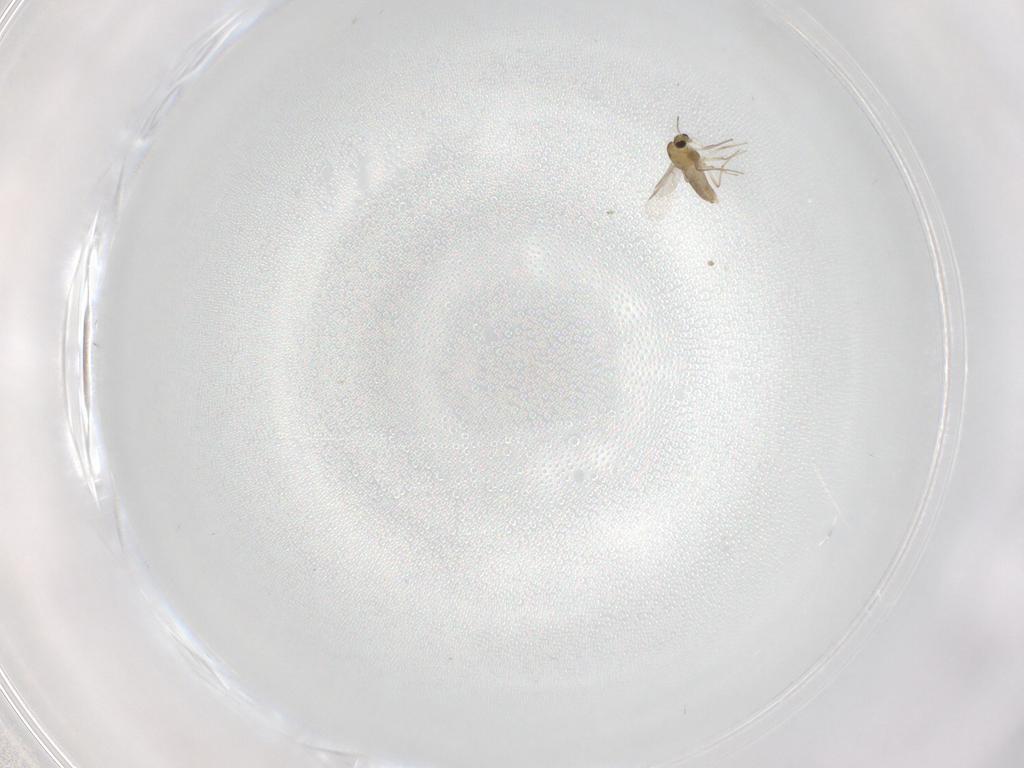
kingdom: Animalia
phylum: Arthropoda
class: Insecta
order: Diptera
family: Chironomidae
